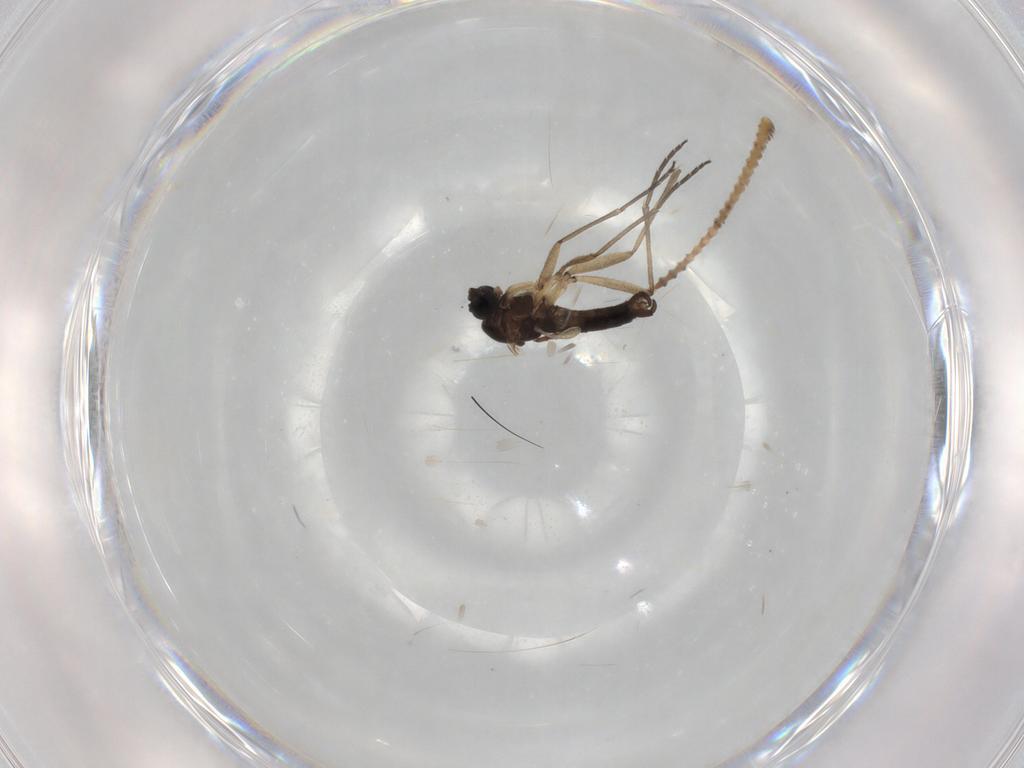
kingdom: Animalia
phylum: Arthropoda
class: Insecta
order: Diptera
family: Sciaridae
